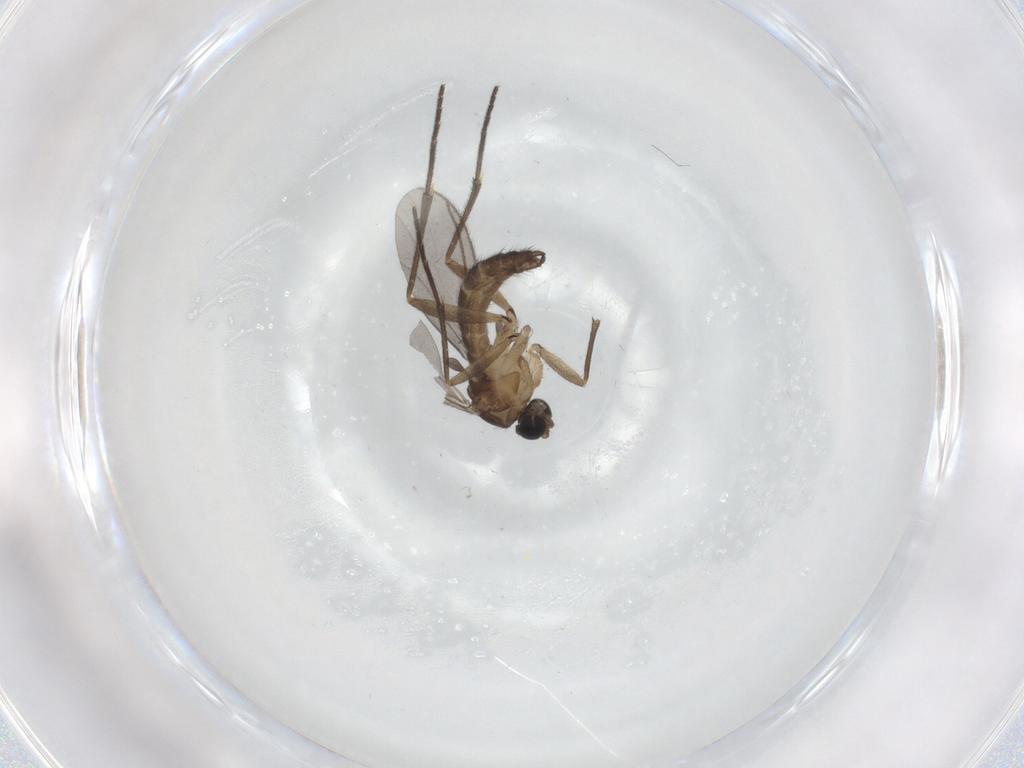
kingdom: Animalia
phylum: Arthropoda
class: Insecta
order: Diptera
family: Sciaridae
